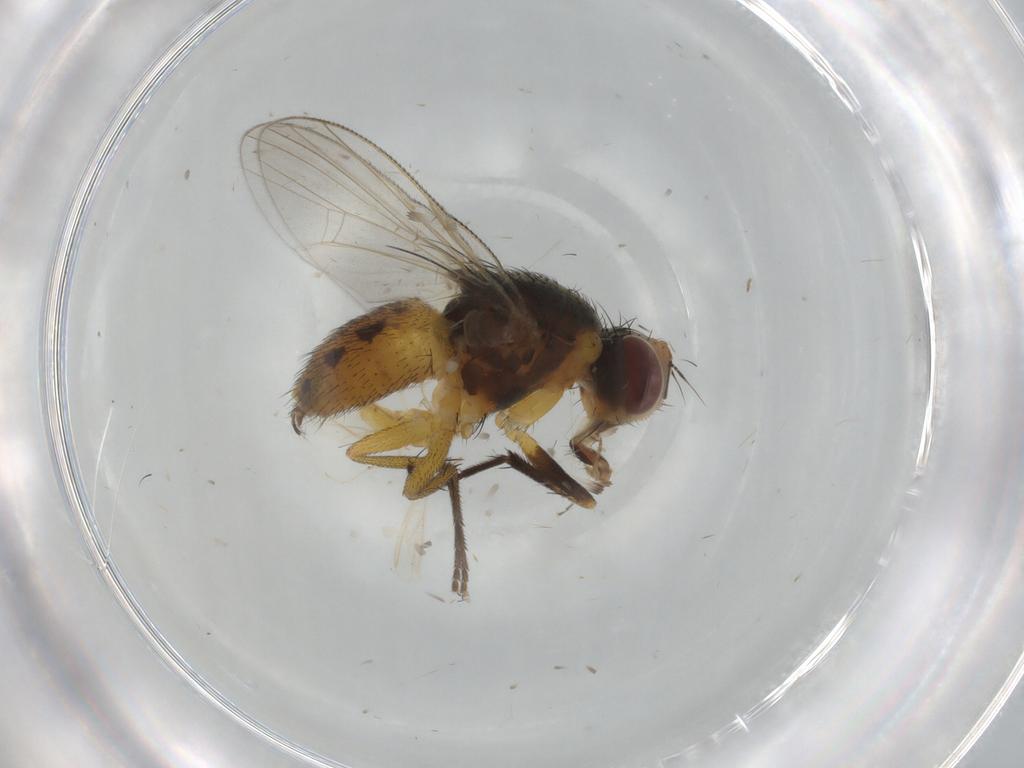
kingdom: Animalia
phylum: Arthropoda
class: Insecta
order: Diptera
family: Chironomidae
